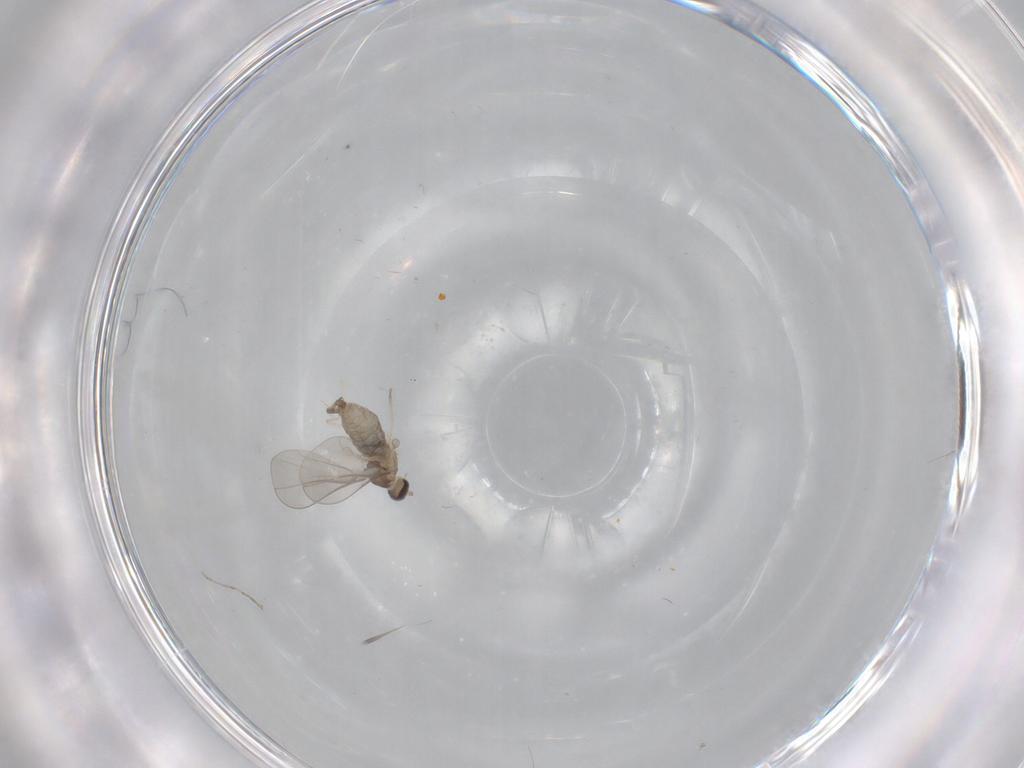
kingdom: Animalia
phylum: Arthropoda
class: Insecta
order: Diptera
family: Cecidomyiidae
